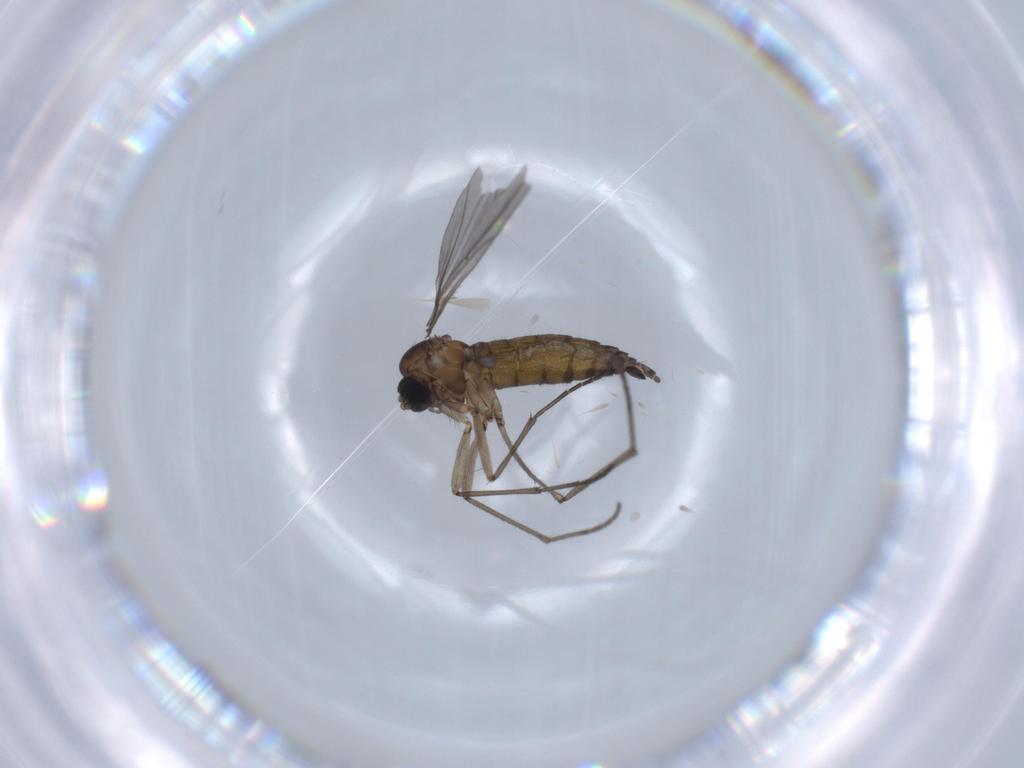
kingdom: Animalia
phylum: Arthropoda
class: Insecta
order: Diptera
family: Sciaridae
